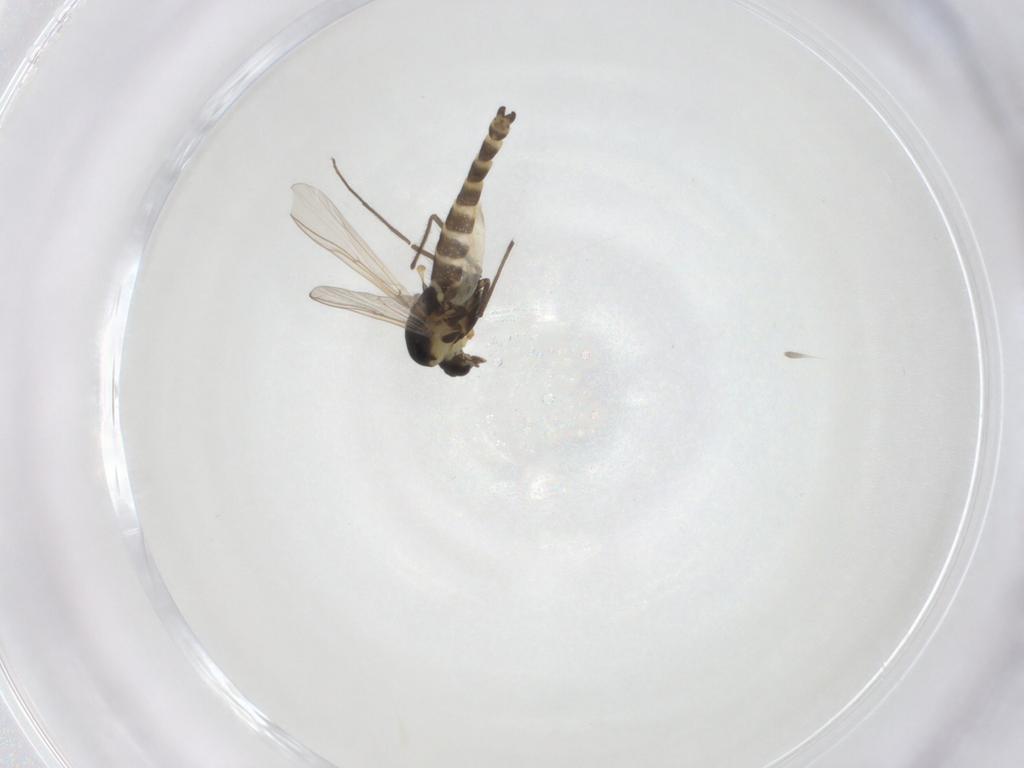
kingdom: Animalia
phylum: Arthropoda
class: Insecta
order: Diptera
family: Chironomidae
